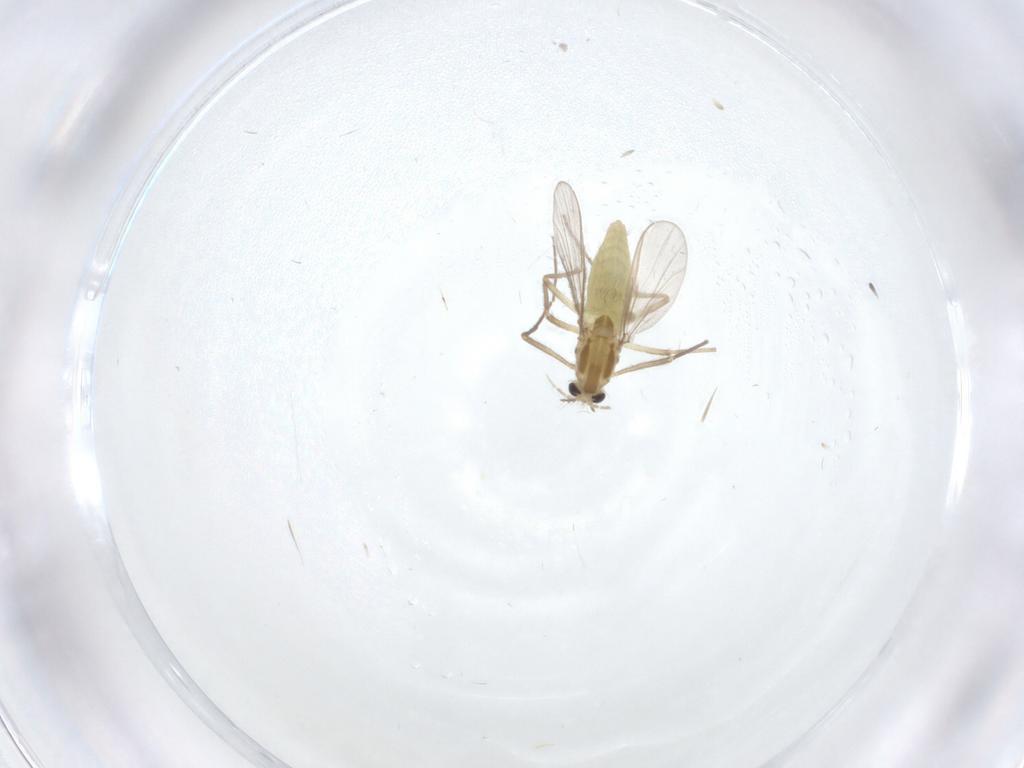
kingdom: Animalia
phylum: Arthropoda
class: Insecta
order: Diptera
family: Chironomidae
